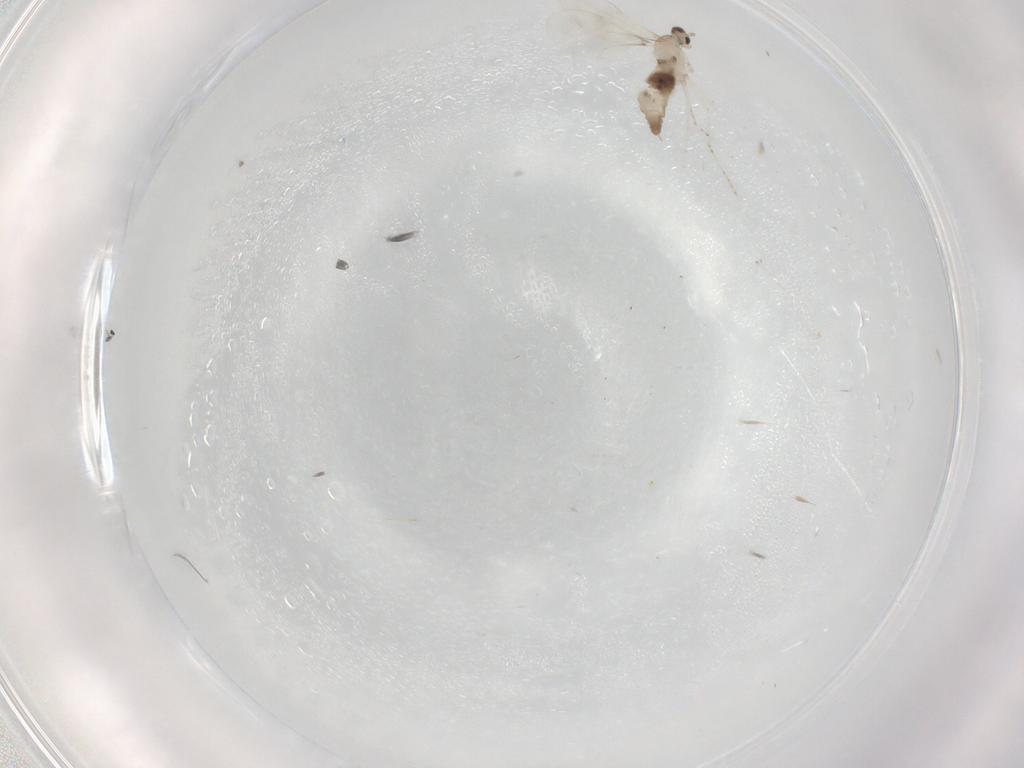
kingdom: Animalia
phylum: Arthropoda
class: Insecta
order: Diptera
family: Cecidomyiidae
